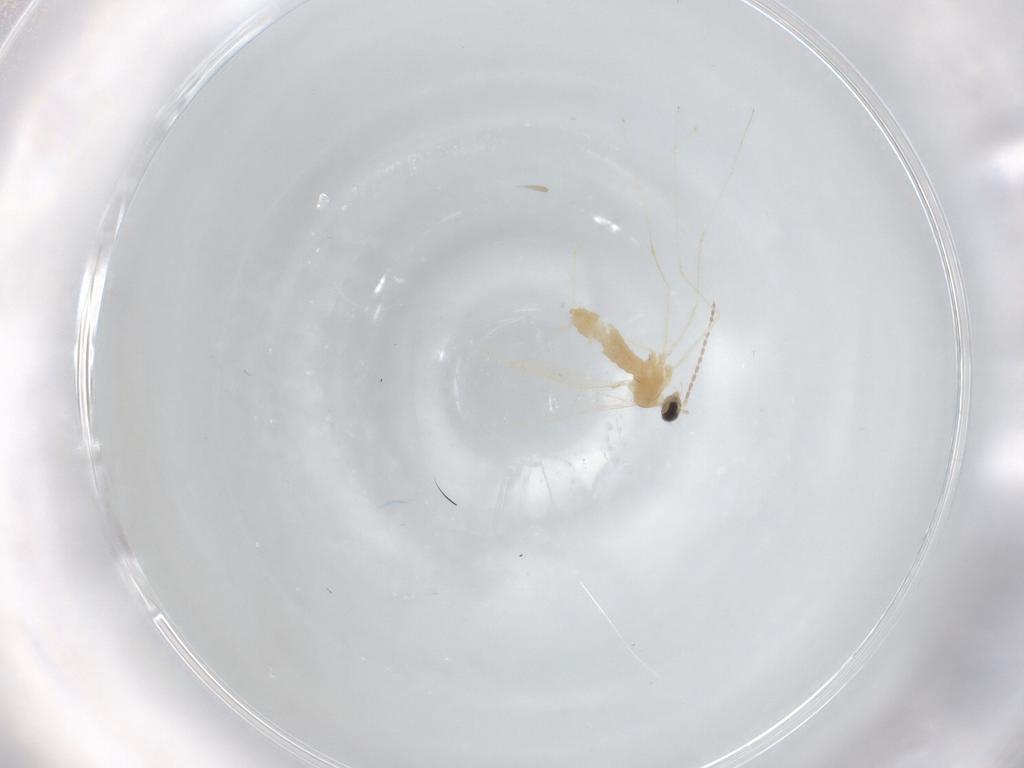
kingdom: Animalia
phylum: Arthropoda
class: Insecta
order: Diptera
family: Cecidomyiidae
